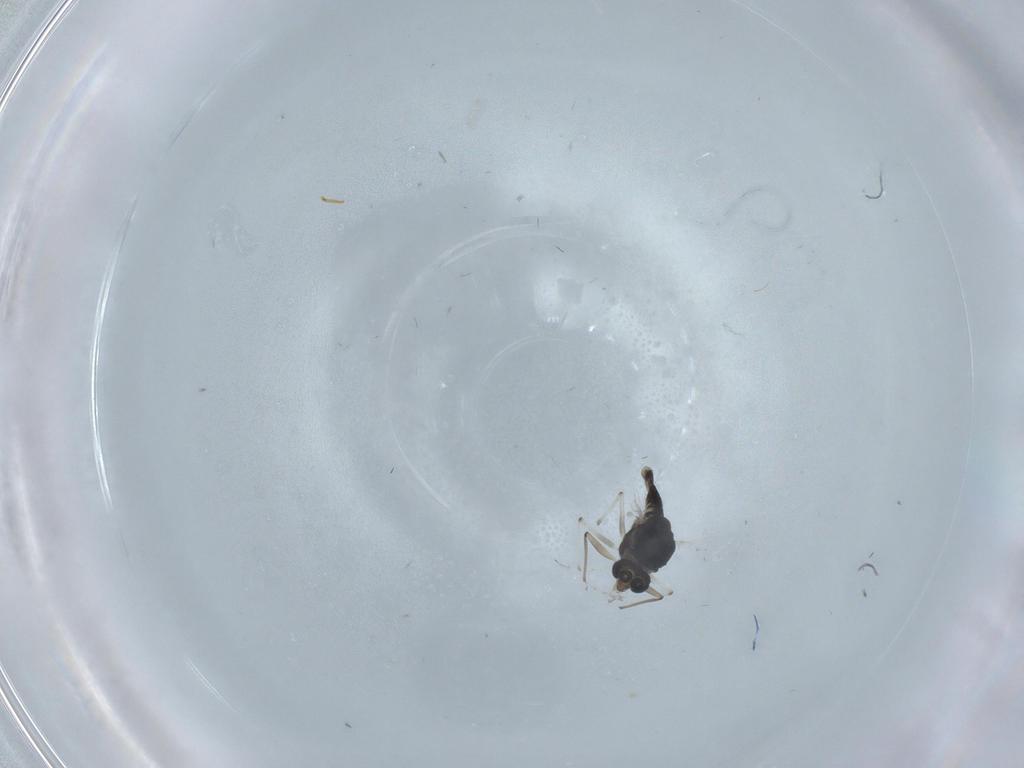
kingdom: Animalia
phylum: Arthropoda
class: Insecta
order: Diptera
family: Chironomidae
